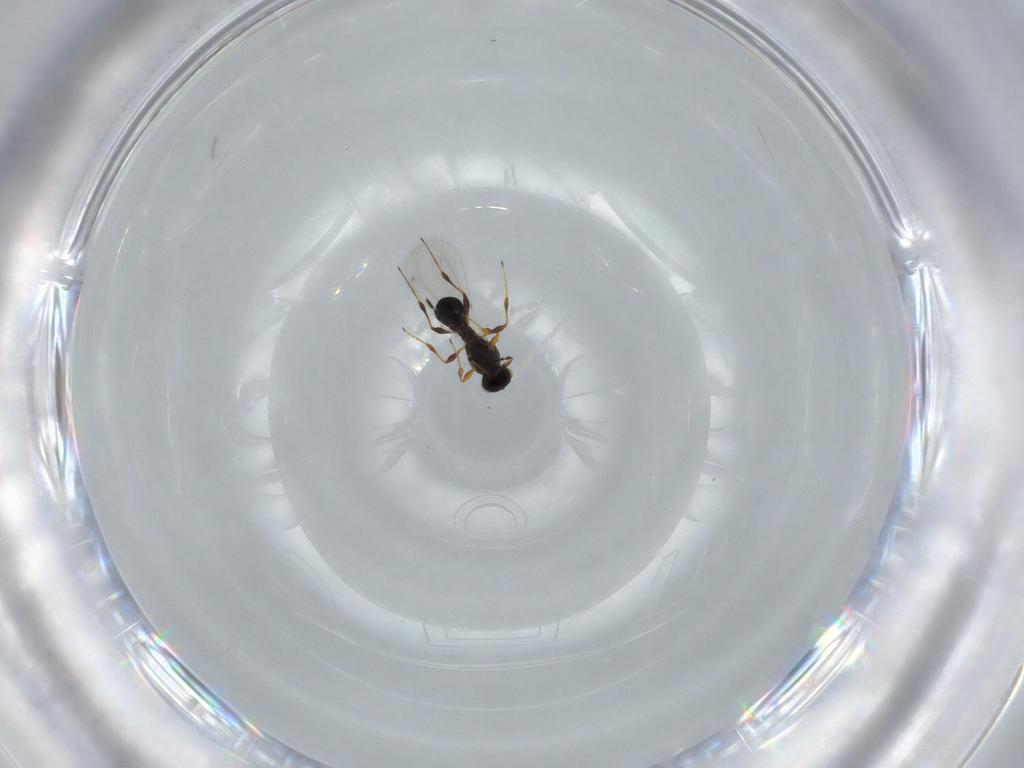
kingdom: Animalia
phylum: Arthropoda
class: Insecta
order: Hymenoptera
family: Platygastridae
